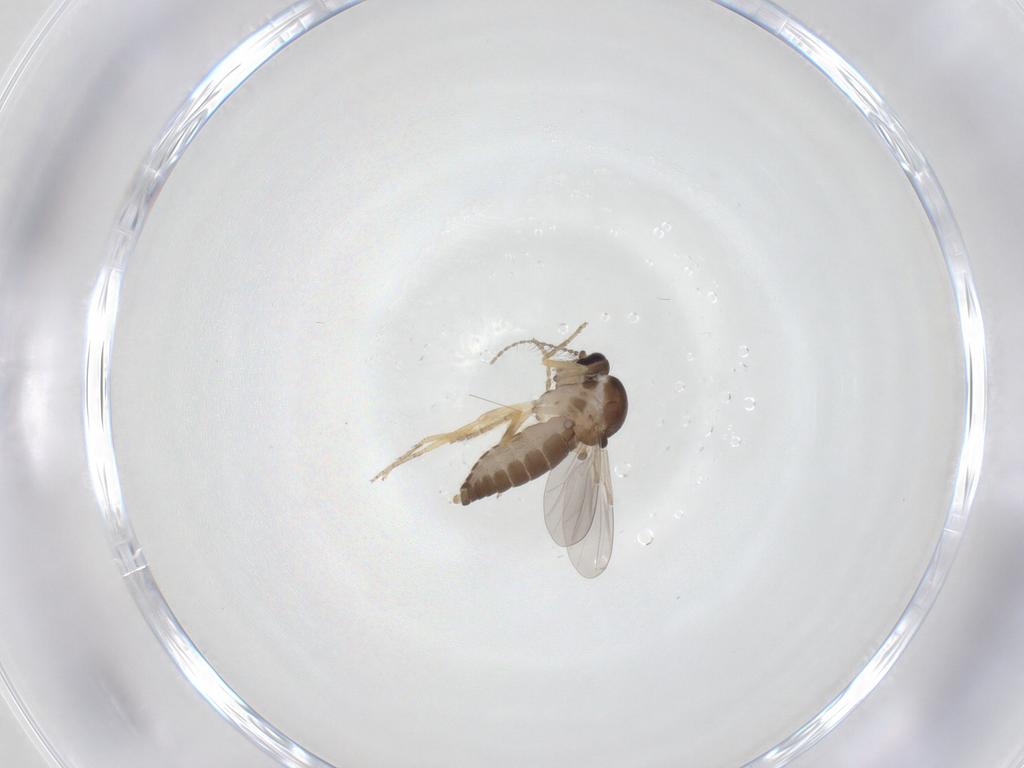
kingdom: Animalia
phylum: Arthropoda
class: Insecta
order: Diptera
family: Ceratopogonidae
